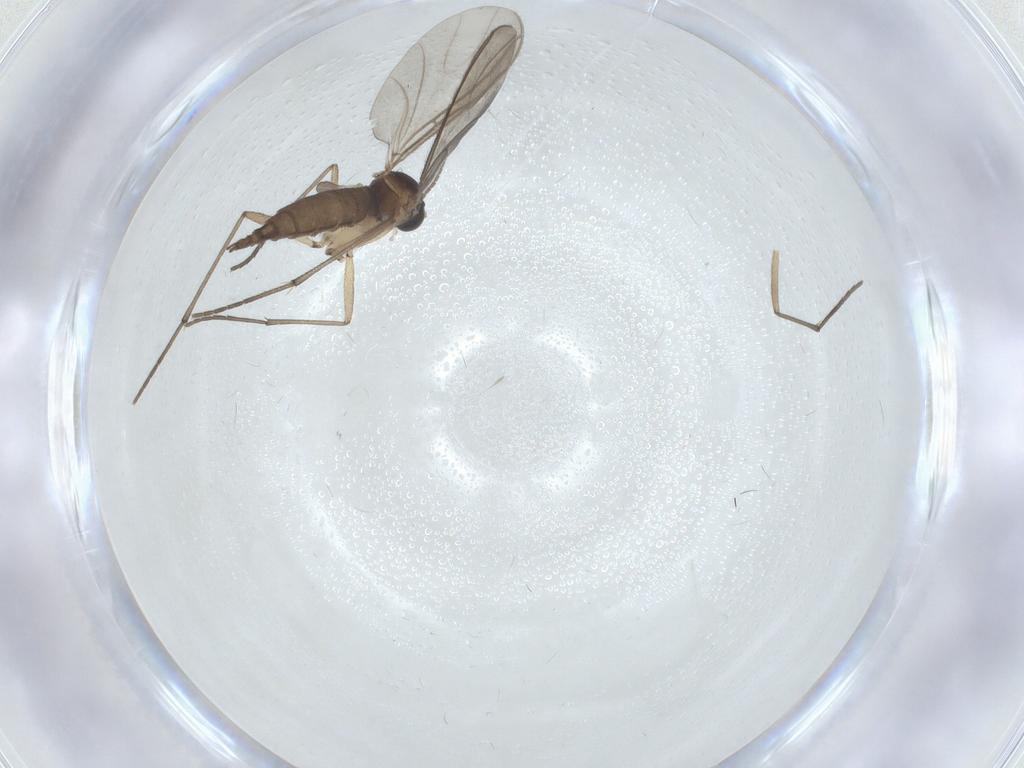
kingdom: Animalia
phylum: Arthropoda
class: Insecta
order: Diptera
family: Sciaridae
